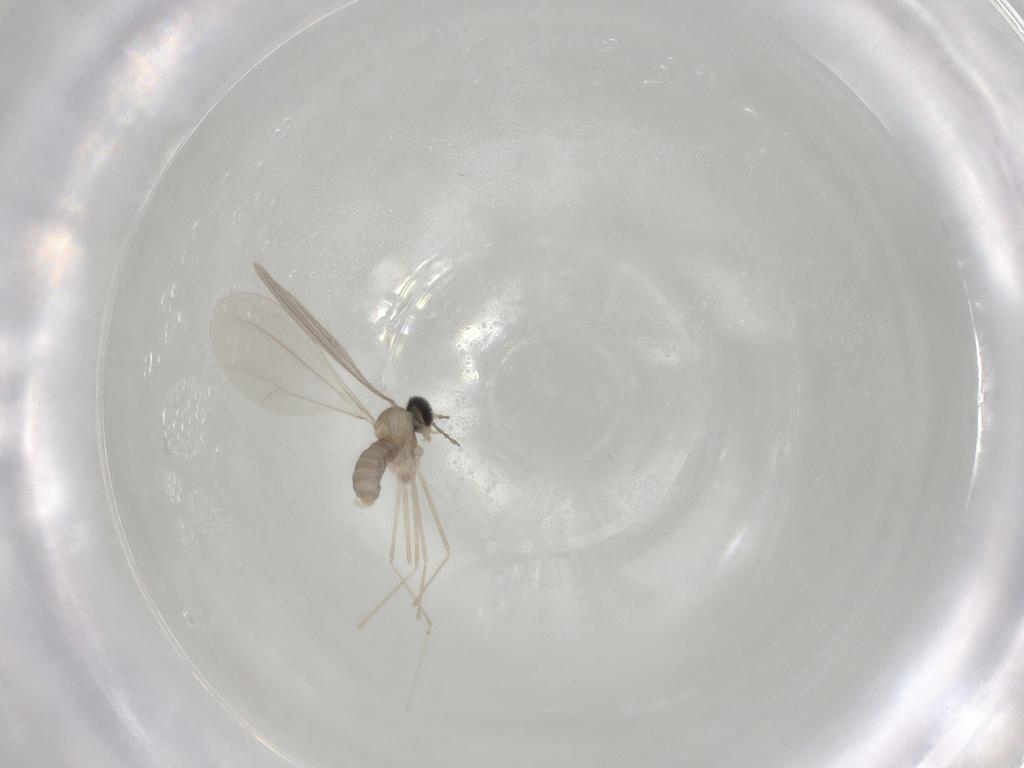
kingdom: Animalia
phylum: Arthropoda
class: Insecta
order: Diptera
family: Cecidomyiidae
